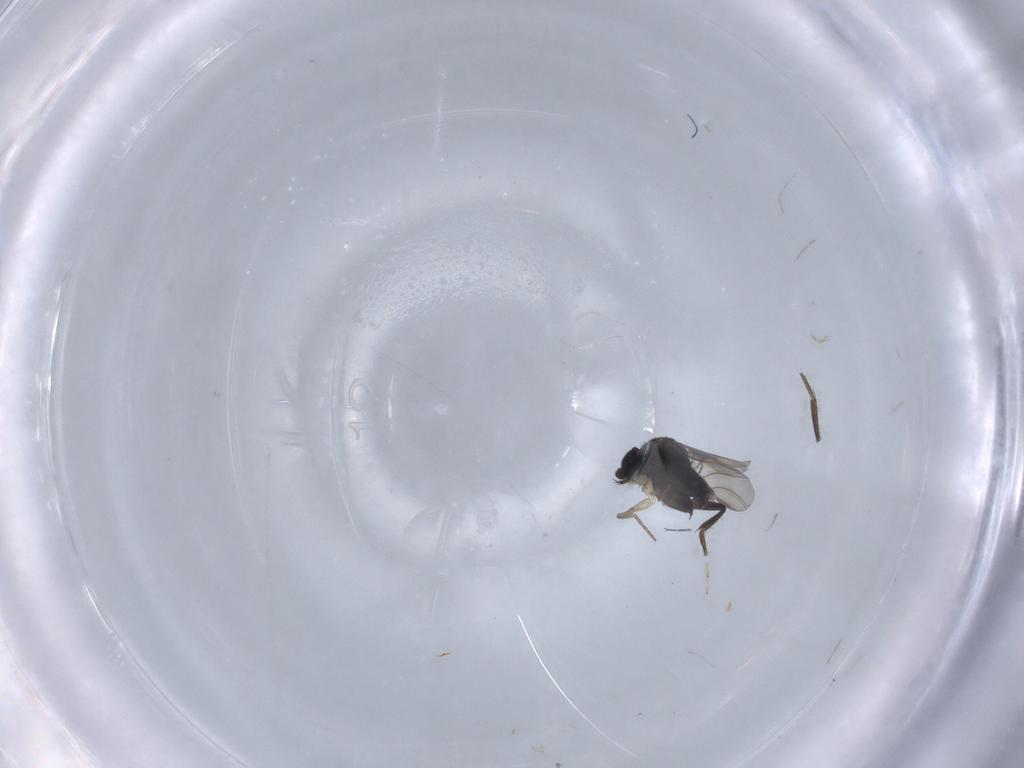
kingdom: Animalia
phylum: Arthropoda
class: Insecta
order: Diptera
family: Phoridae
